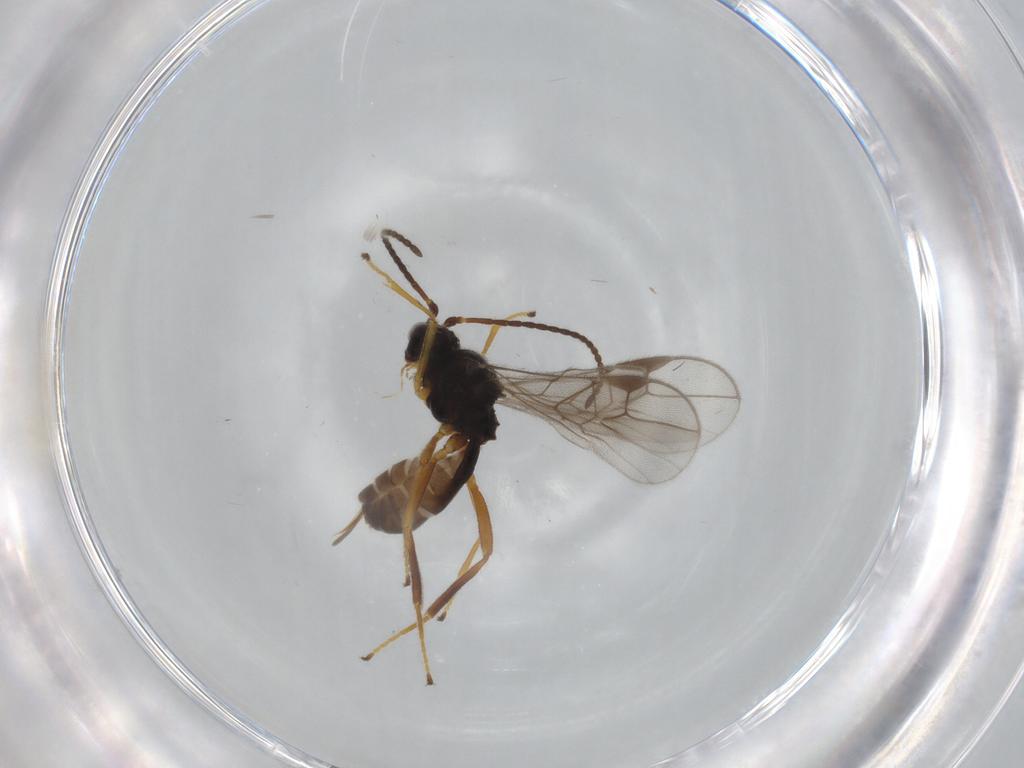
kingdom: Animalia
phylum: Arthropoda
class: Insecta
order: Hymenoptera
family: Braconidae
